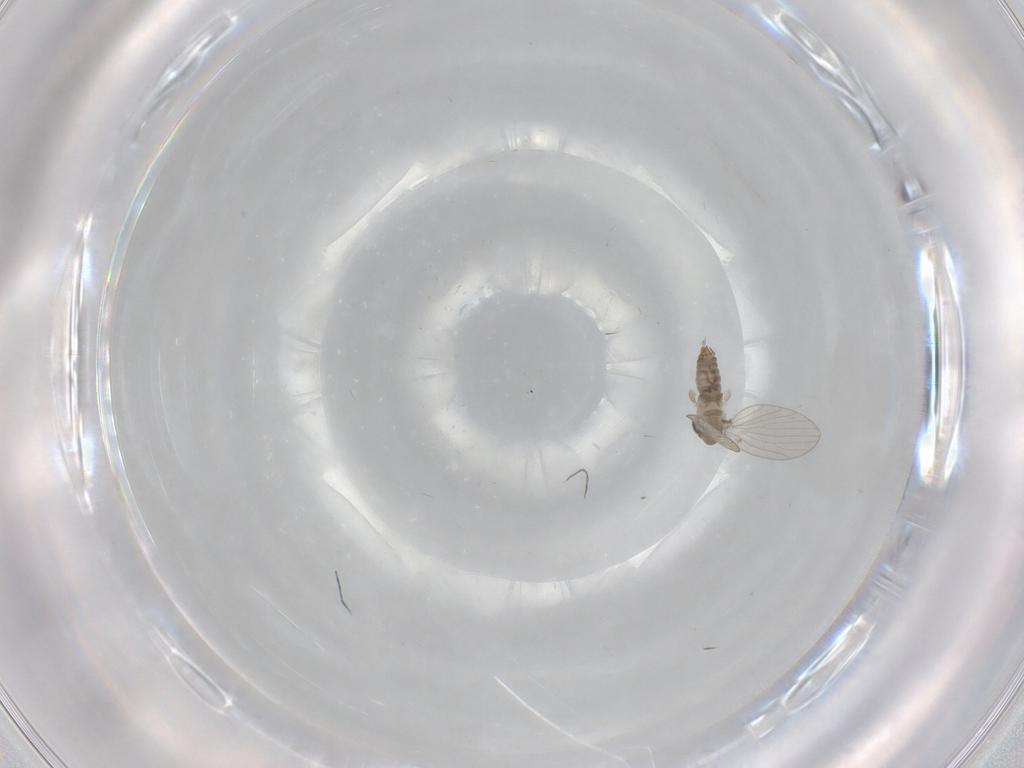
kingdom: Animalia
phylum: Arthropoda
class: Insecta
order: Diptera
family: Psychodidae
